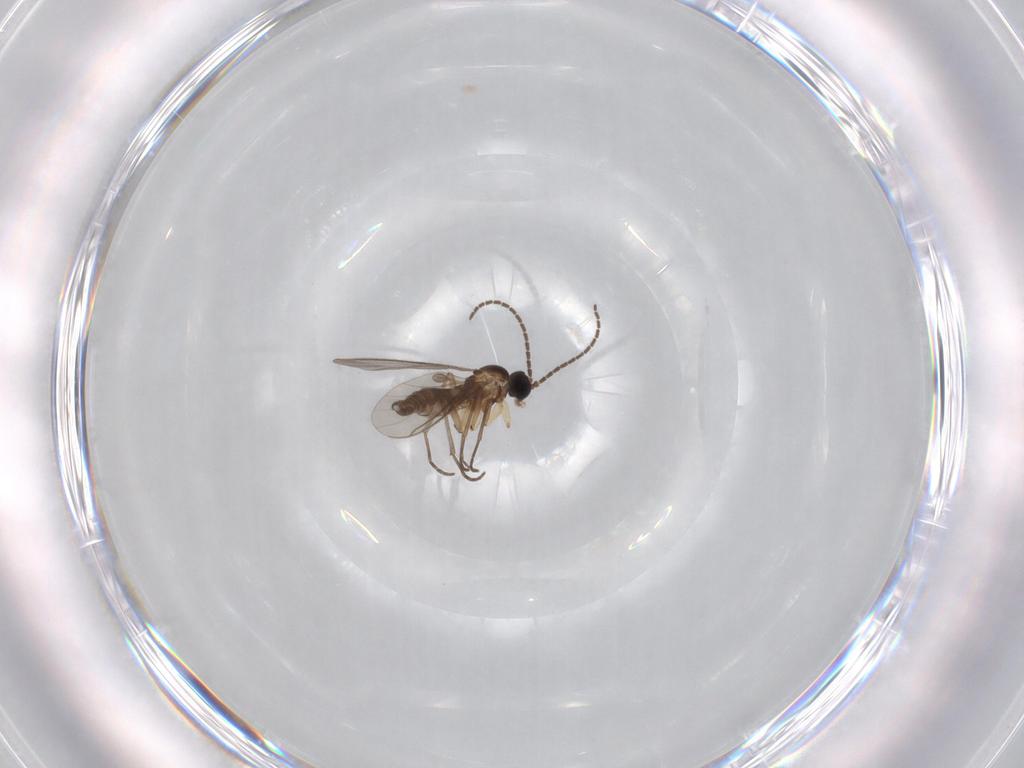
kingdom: Animalia
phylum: Arthropoda
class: Insecta
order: Diptera
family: Sciaridae
